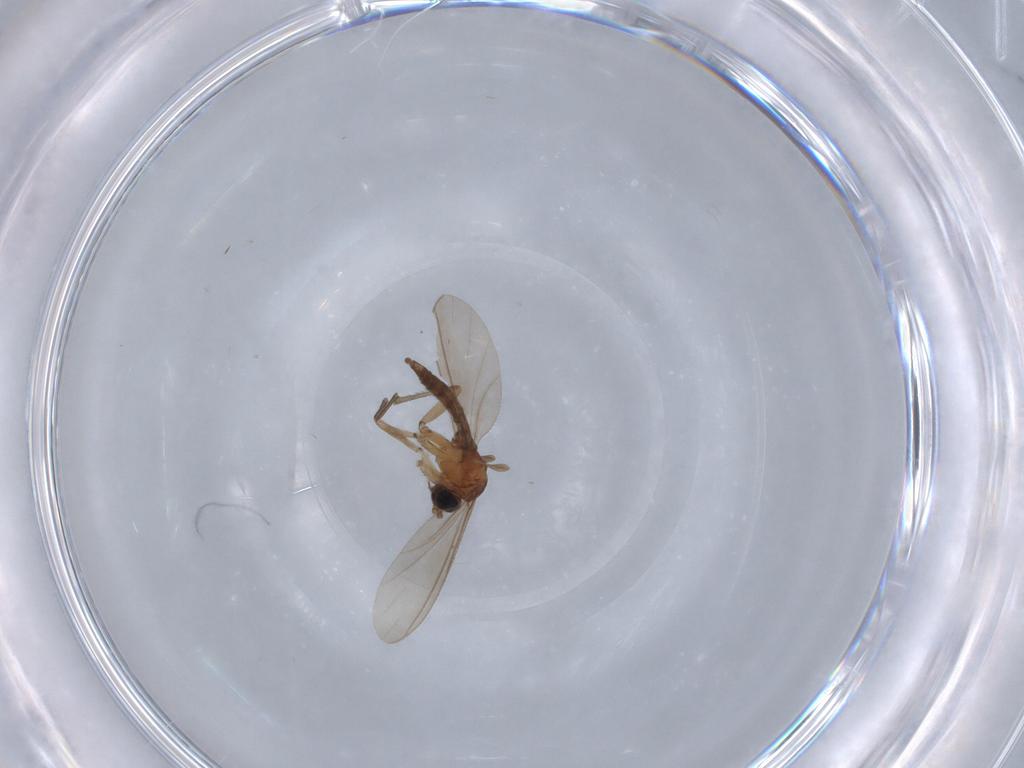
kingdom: Animalia
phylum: Arthropoda
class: Insecta
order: Diptera
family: Sciaridae
